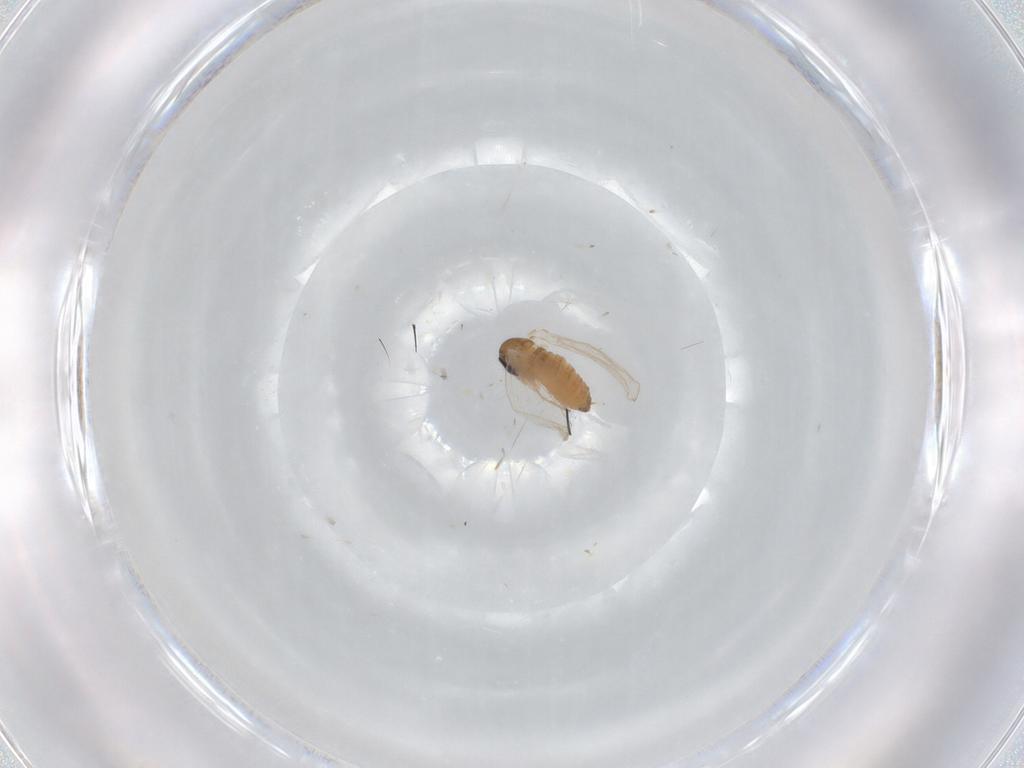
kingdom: Animalia
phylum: Arthropoda
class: Insecta
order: Diptera
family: Psychodidae
